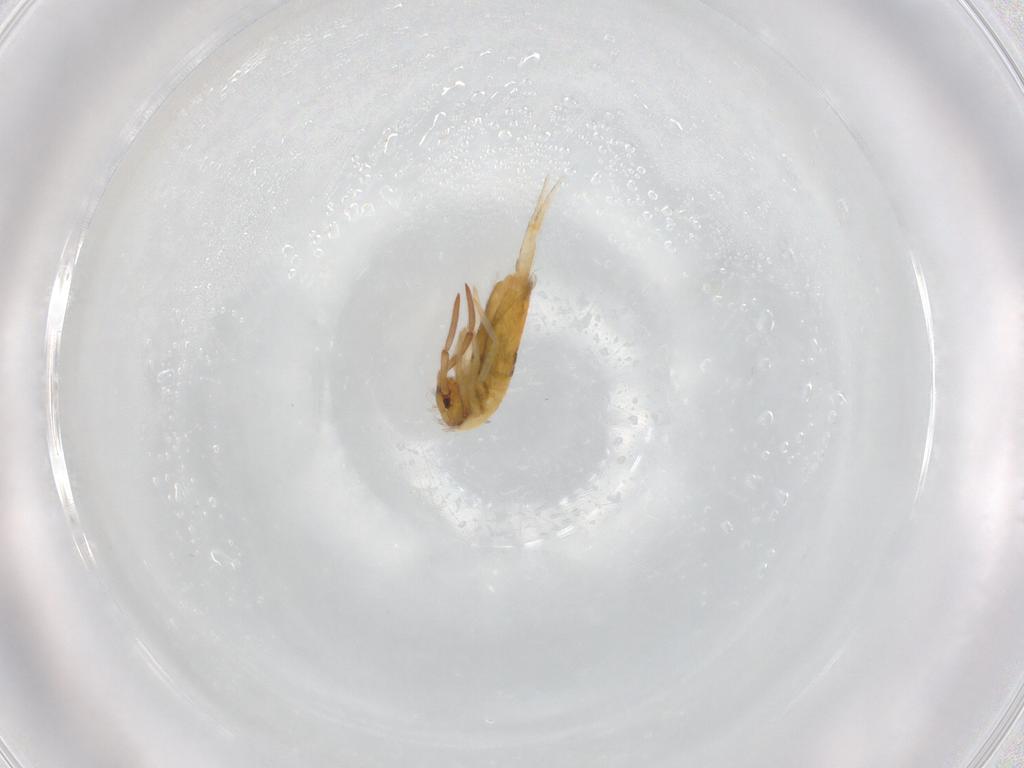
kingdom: Animalia
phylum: Arthropoda
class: Collembola
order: Entomobryomorpha
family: Entomobryidae
